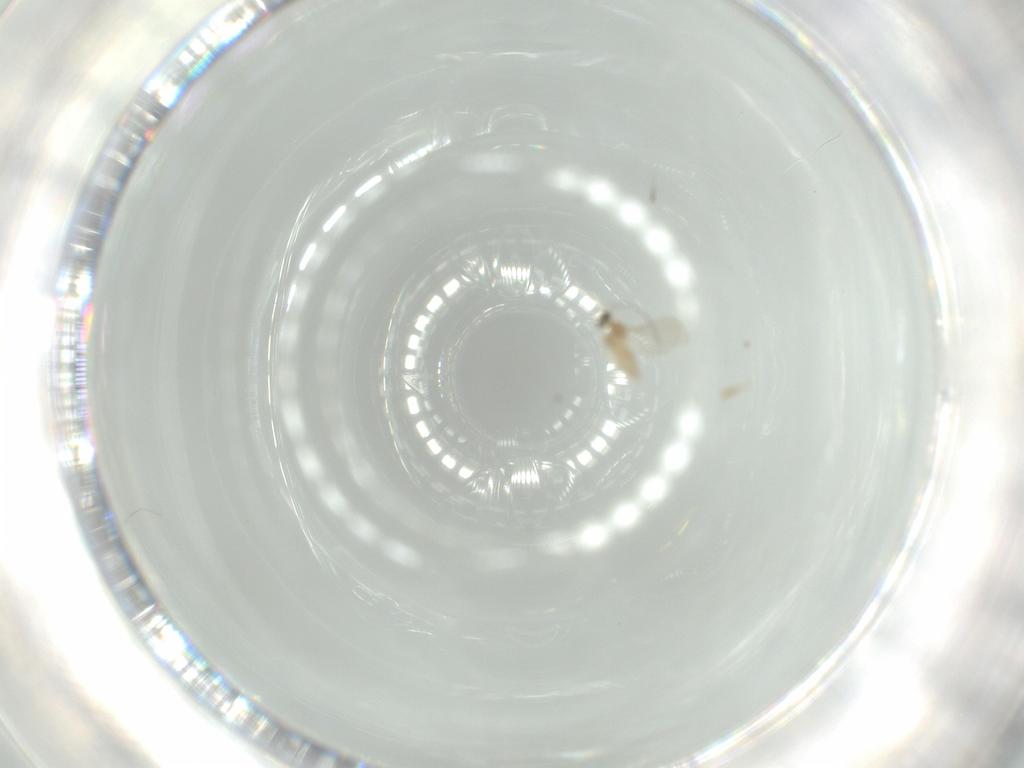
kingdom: Animalia
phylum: Arthropoda
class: Insecta
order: Diptera
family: Cecidomyiidae
